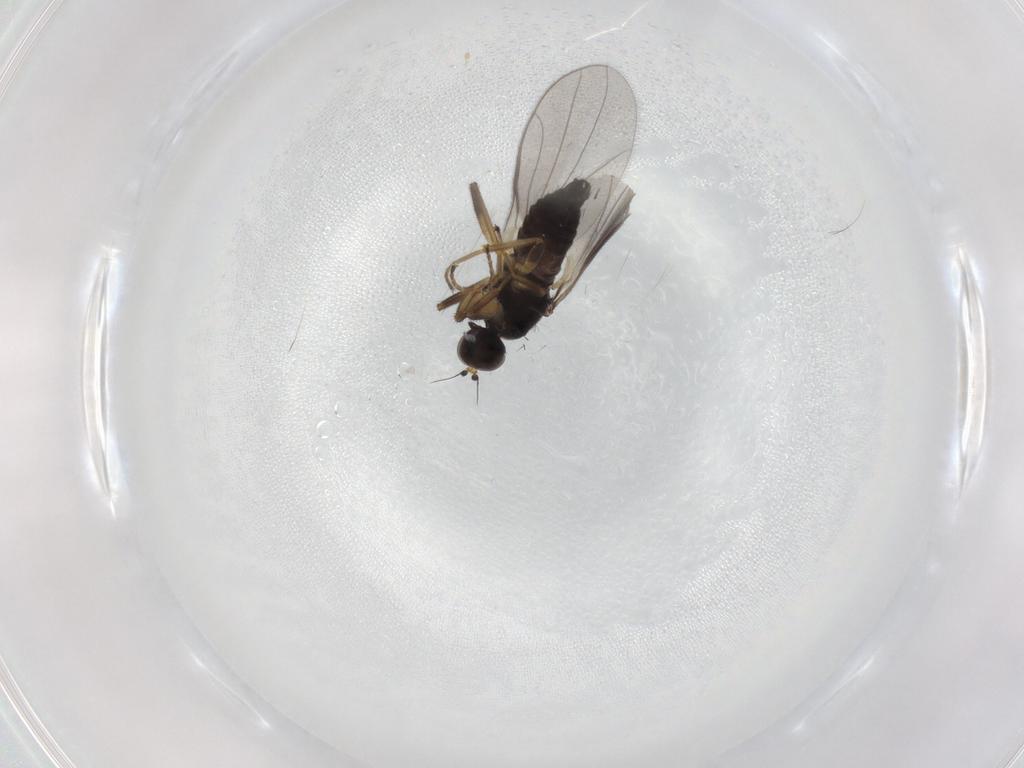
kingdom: Animalia
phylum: Arthropoda
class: Insecta
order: Diptera
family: Hybotidae
